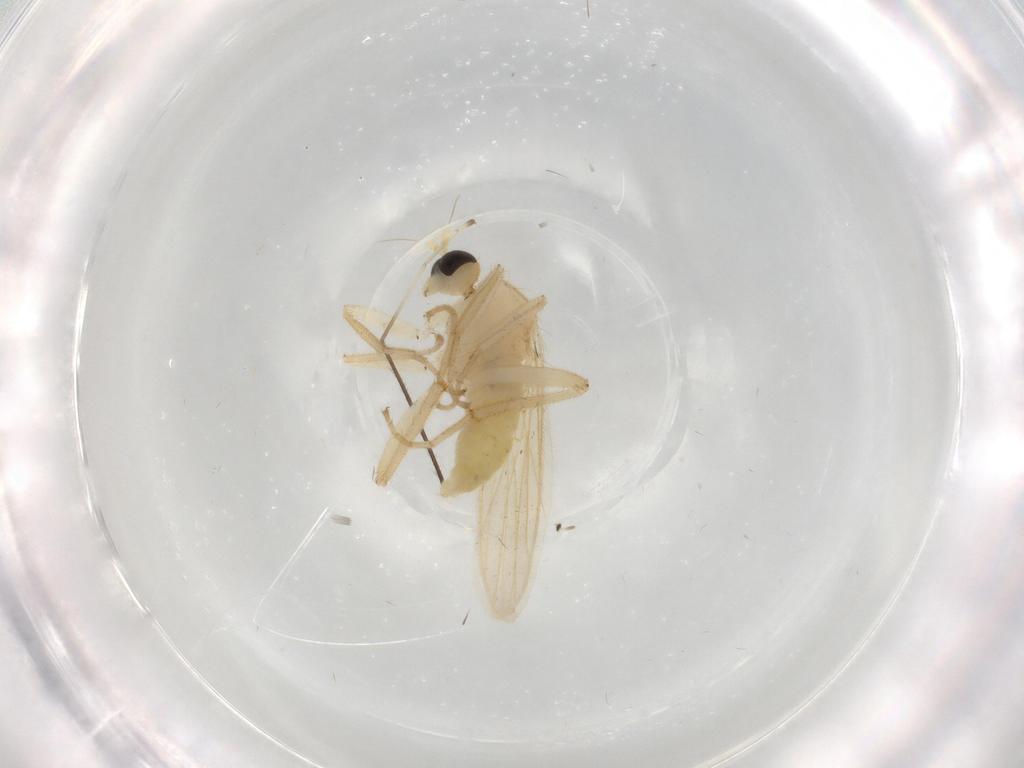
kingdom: Animalia
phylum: Arthropoda
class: Insecta
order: Diptera
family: Hybotidae
